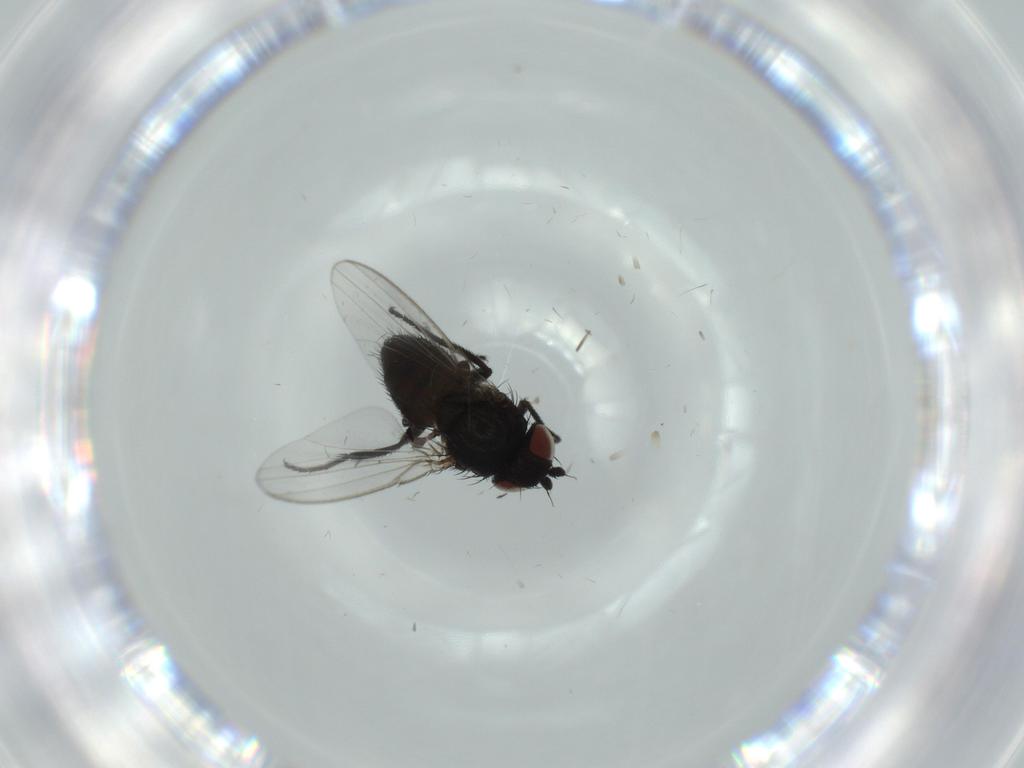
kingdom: Animalia
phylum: Arthropoda
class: Insecta
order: Diptera
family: Milichiidae
